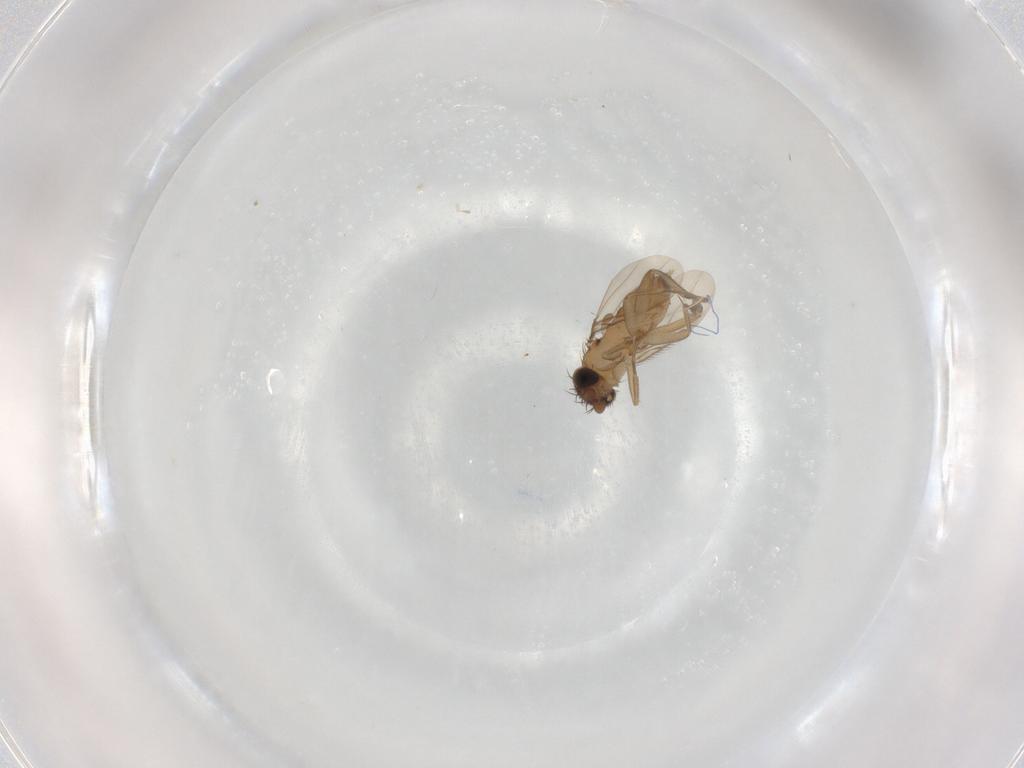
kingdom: Animalia
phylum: Arthropoda
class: Insecta
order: Diptera
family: Phoridae
